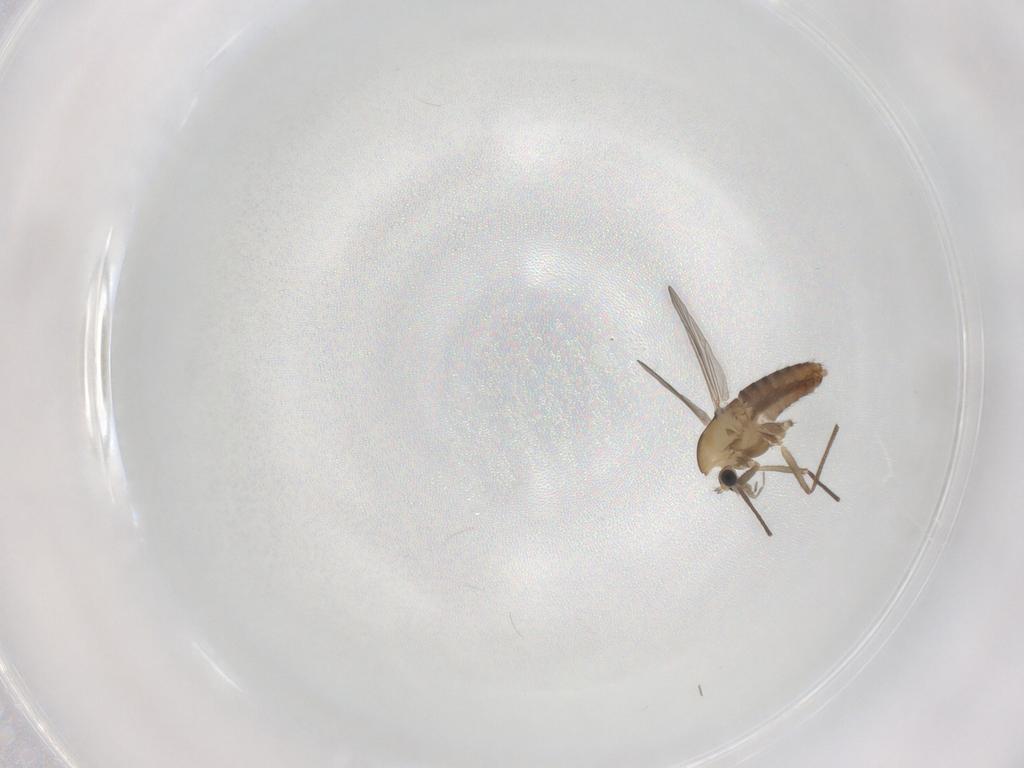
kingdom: Animalia
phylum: Arthropoda
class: Insecta
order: Diptera
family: Chironomidae
